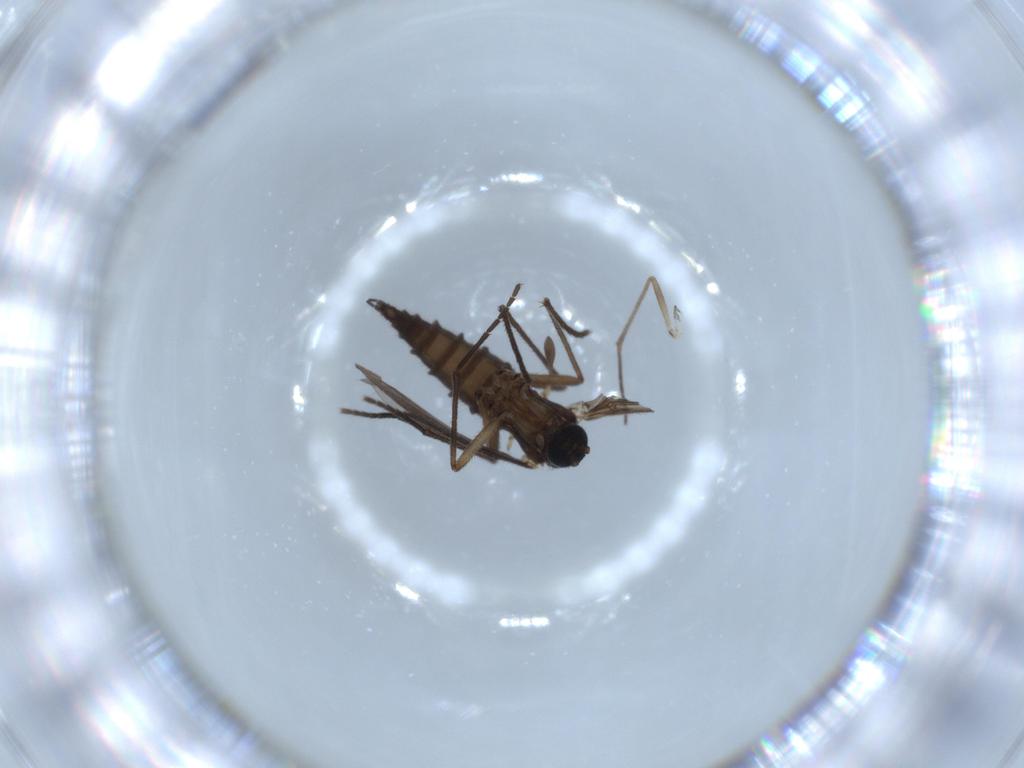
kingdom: Animalia
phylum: Arthropoda
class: Insecta
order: Diptera
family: Sciaridae
